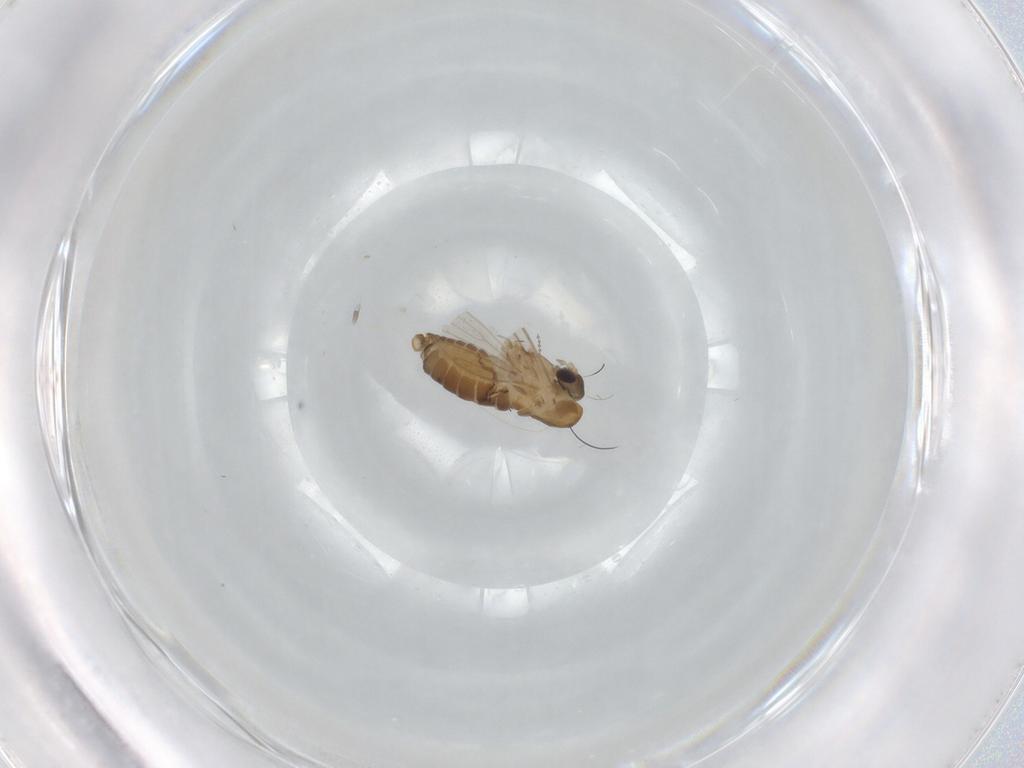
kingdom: Animalia
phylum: Arthropoda
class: Insecta
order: Diptera
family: Psychodidae
